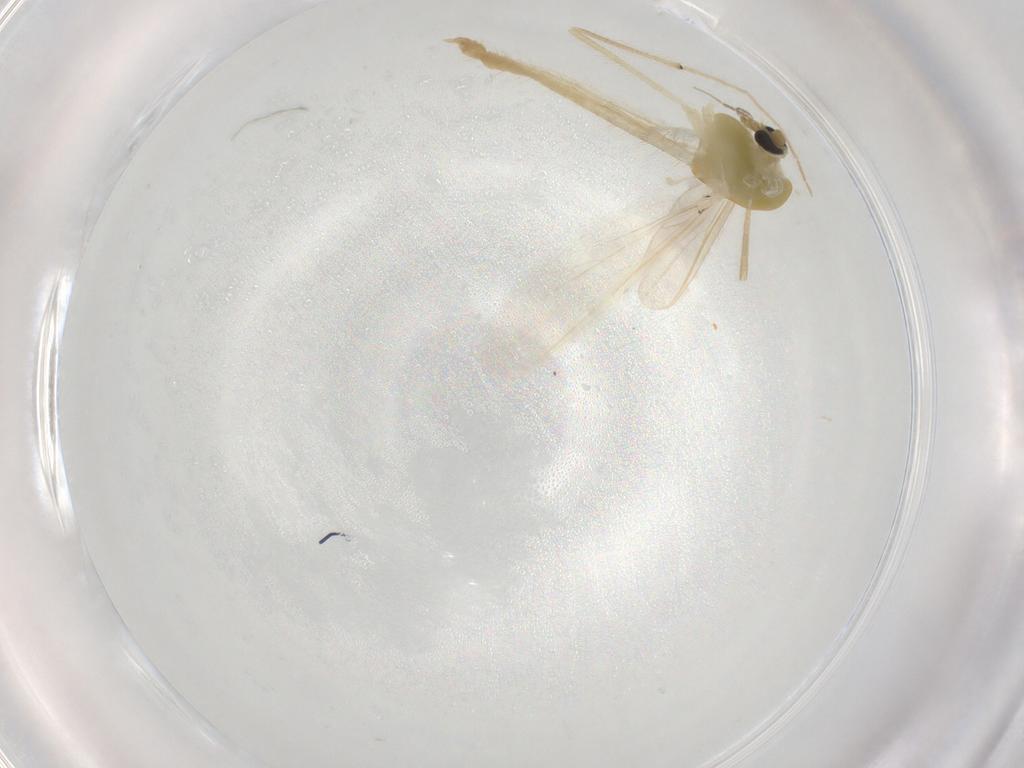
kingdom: Animalia
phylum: Arthropoda
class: Insecta
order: Diptera
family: Chironomidae
